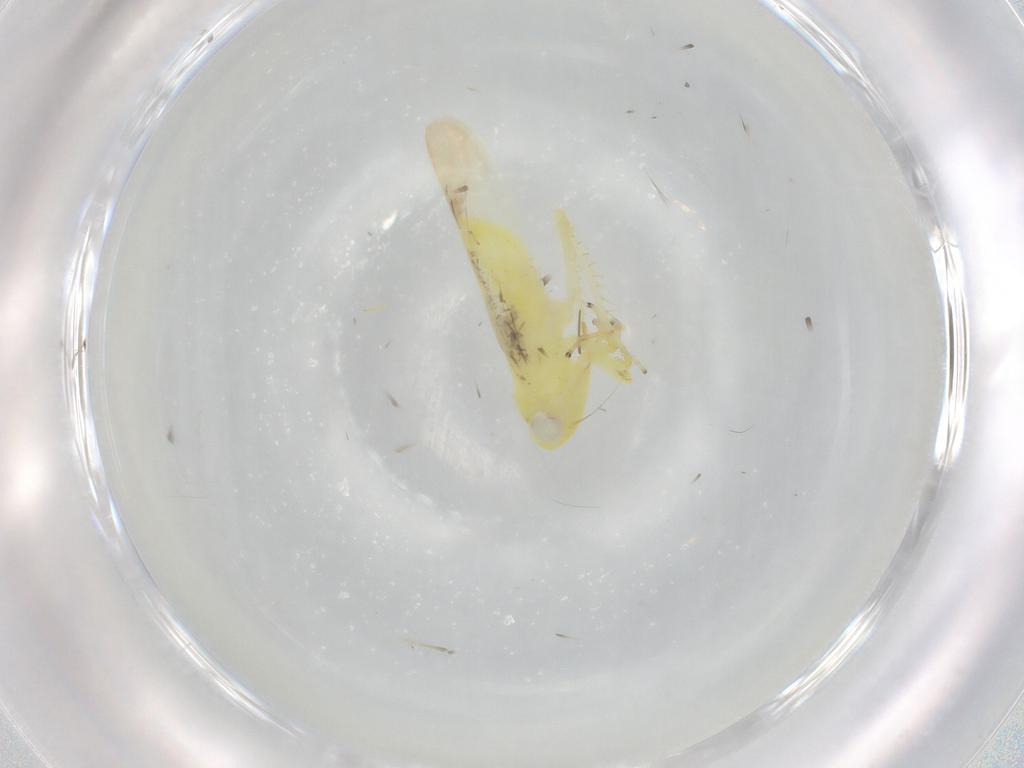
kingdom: Animalia
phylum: Arthropoda
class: Insecta
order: Hemiptera
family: Cicadellidae
